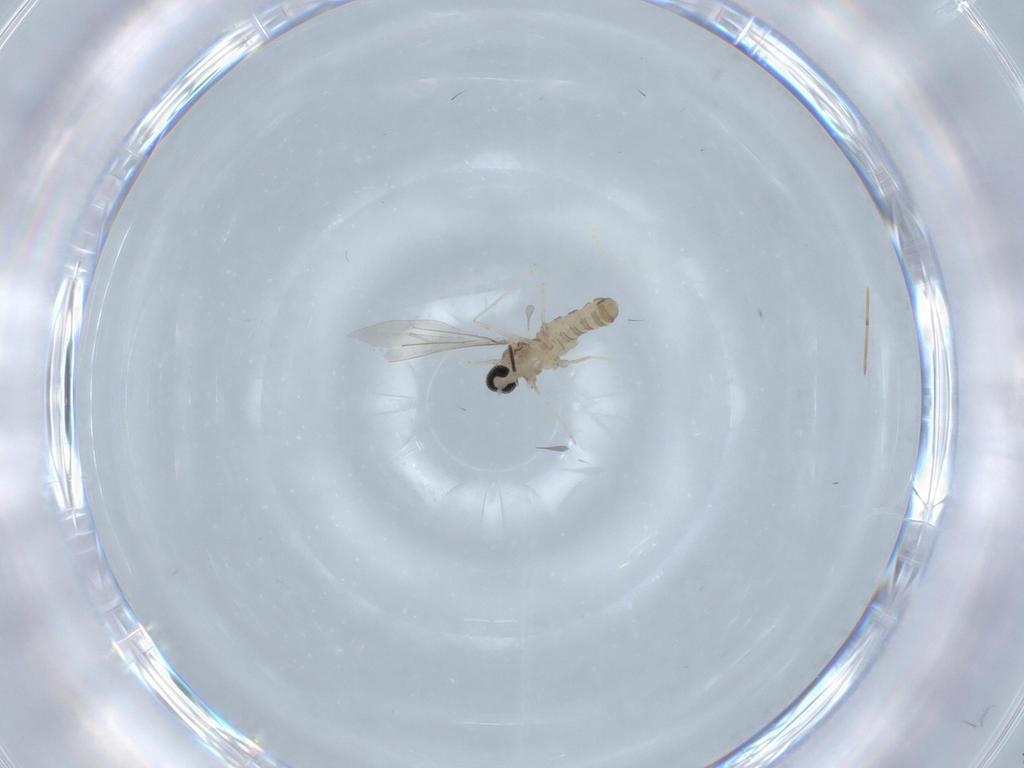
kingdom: Animalia
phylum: Arthropoda
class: Insecta
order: Diptera
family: Cecidomyiidae
